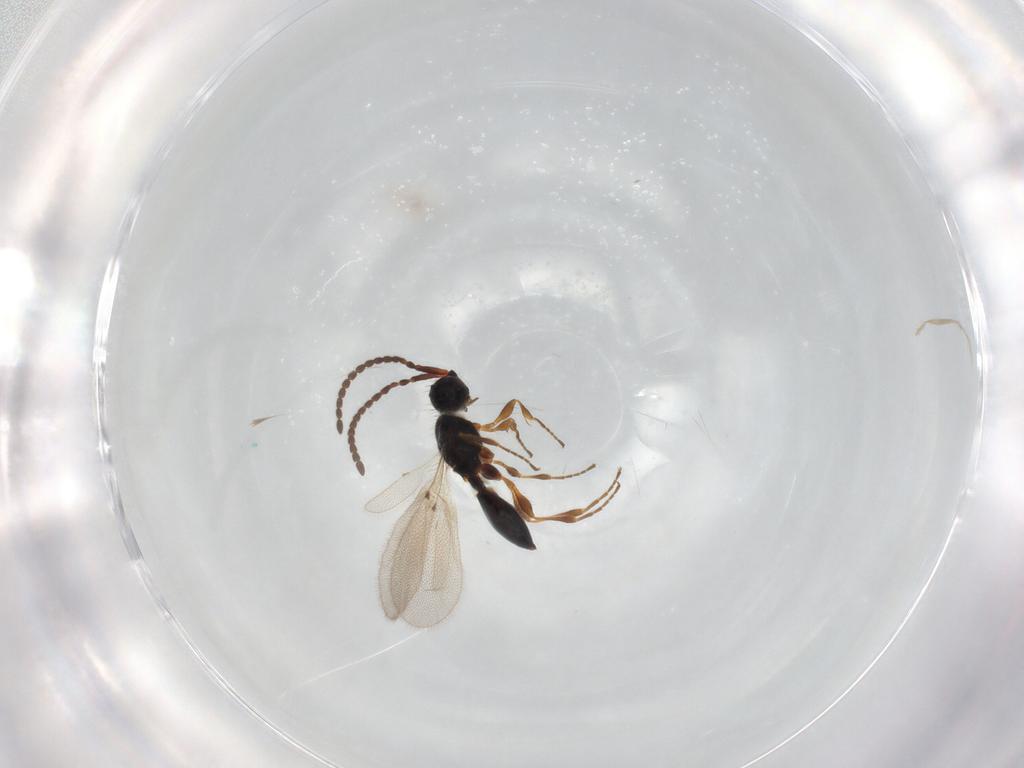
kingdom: Animalia
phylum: Arthropoda
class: Insecta
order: Hymenoptera
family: Diapriidae
